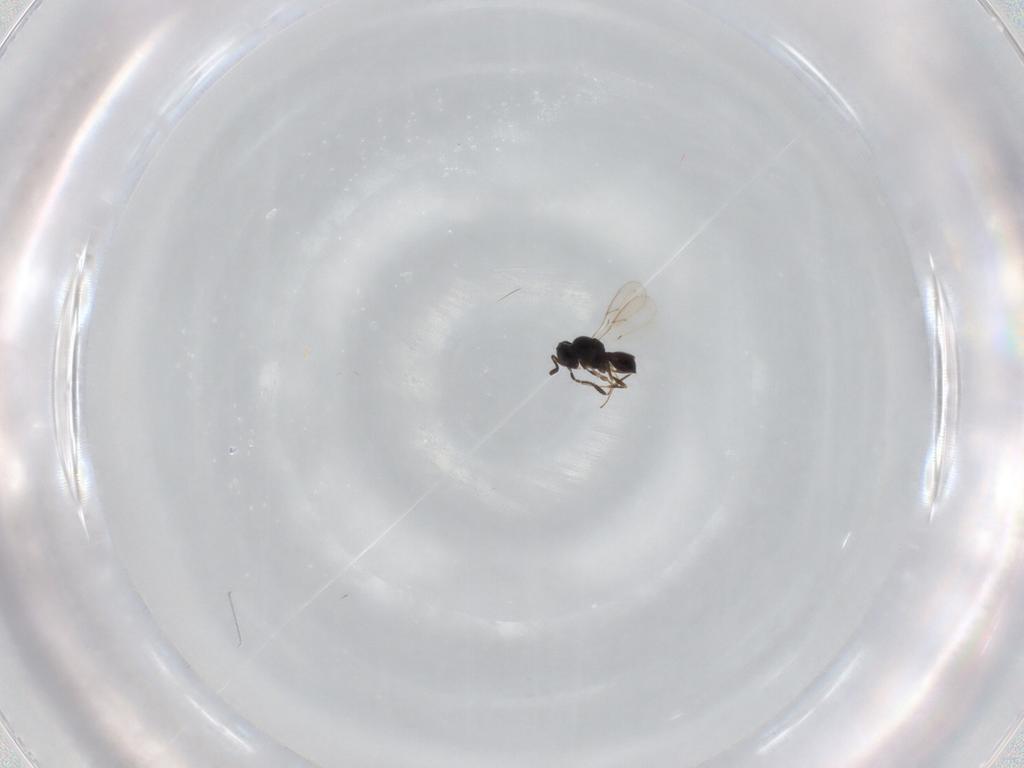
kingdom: Animalia
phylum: Arthropoda
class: Insecta
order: Hymenoptera
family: Scelionidae
